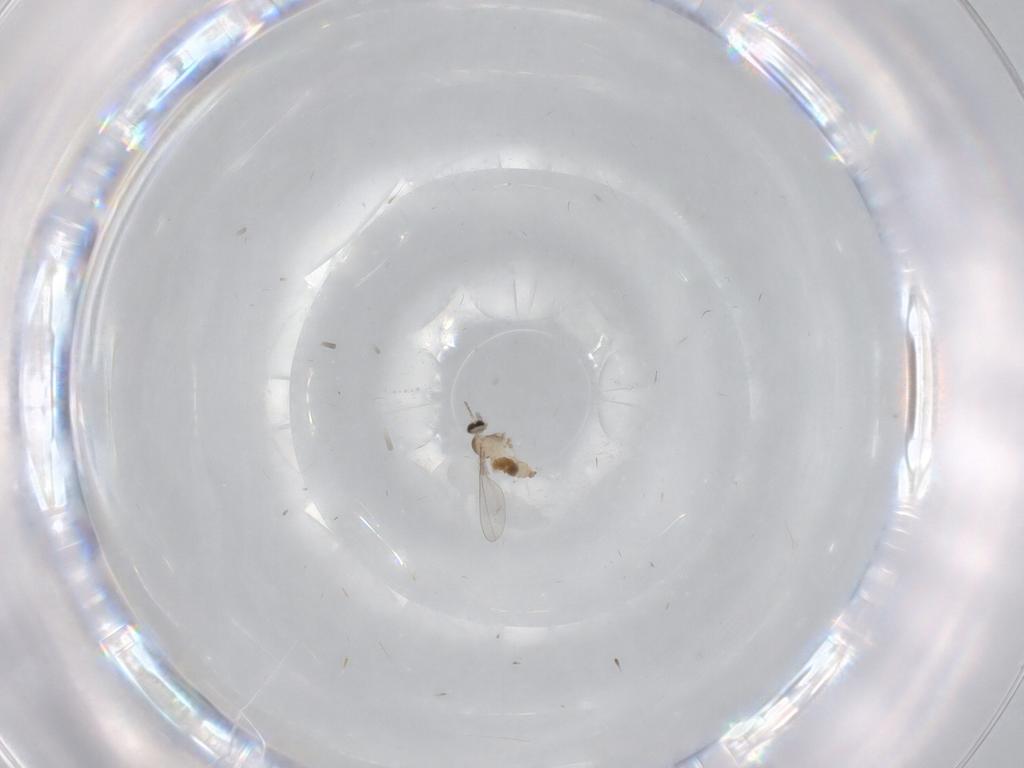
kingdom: Animalia
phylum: Arthropoda
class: Insecta
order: Diptera
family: Cecidomyiidae
